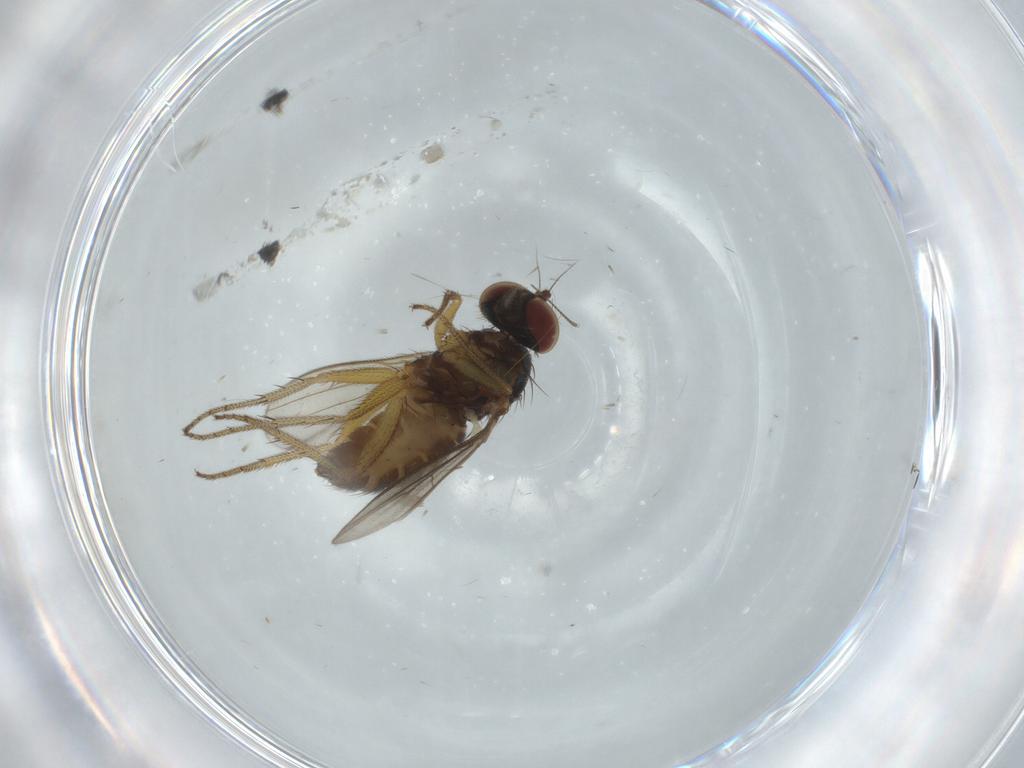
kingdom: Animalia
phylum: Arthropoda
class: Insecta
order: Diptera
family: Dolichopodidae
